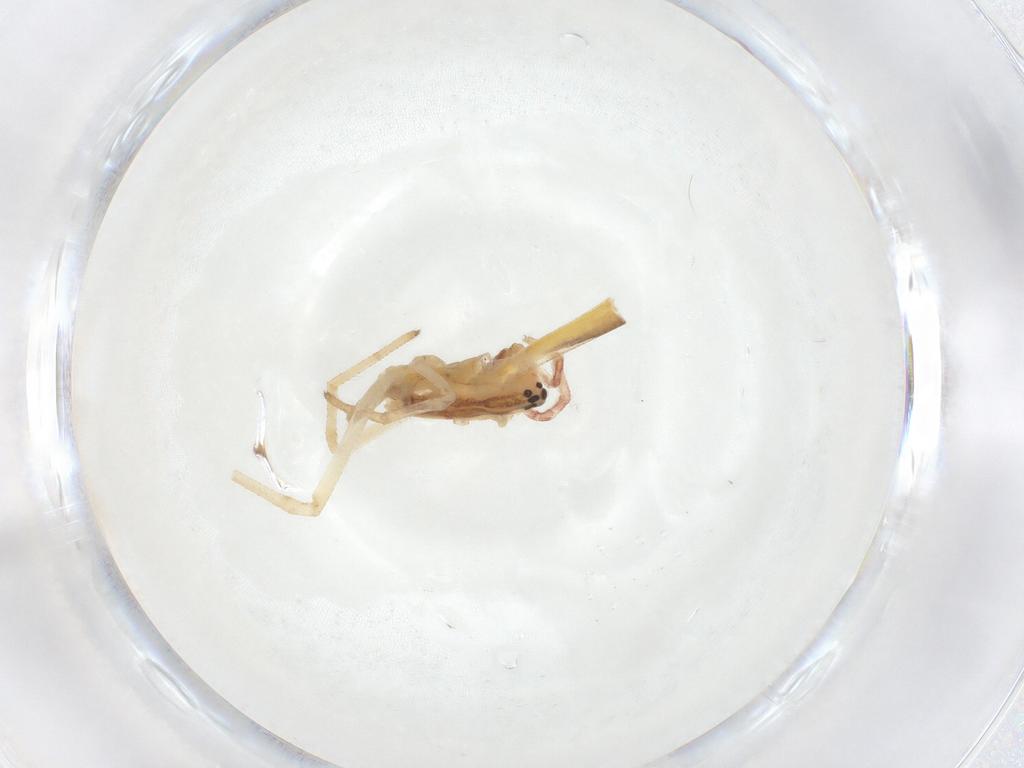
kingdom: Animalia
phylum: Arthropoda
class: Arachnida
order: Araneae
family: Tetragnathidae
